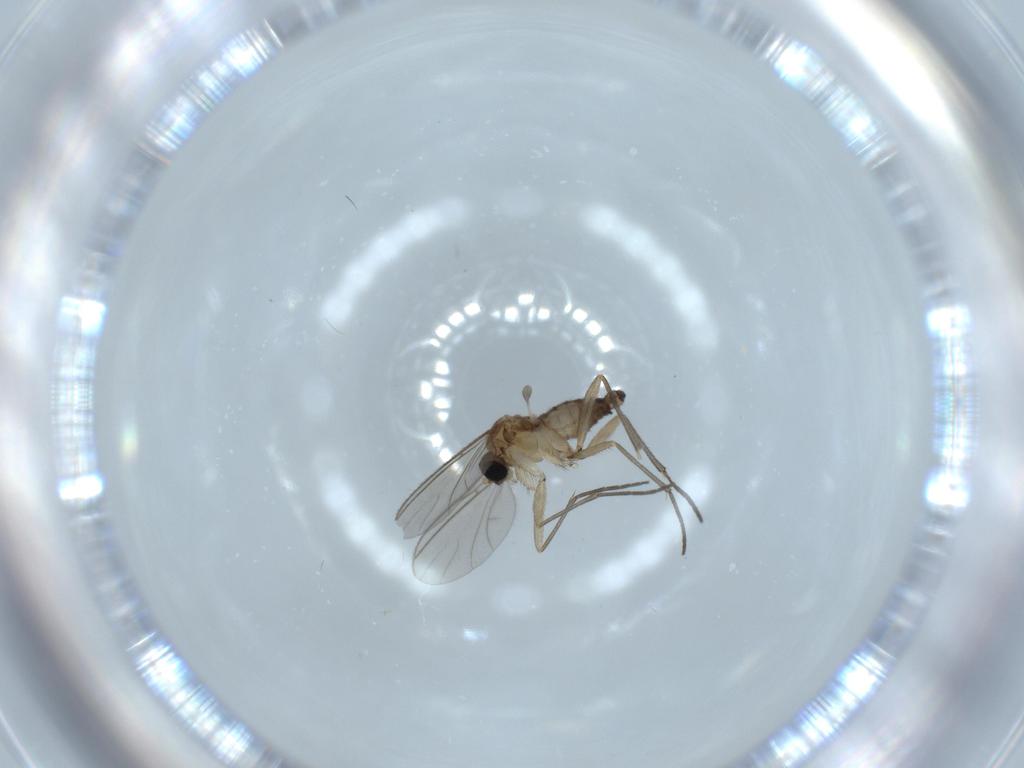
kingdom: Animalia
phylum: Arthropoda
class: Insecta
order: Diptera
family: Sciaridae
